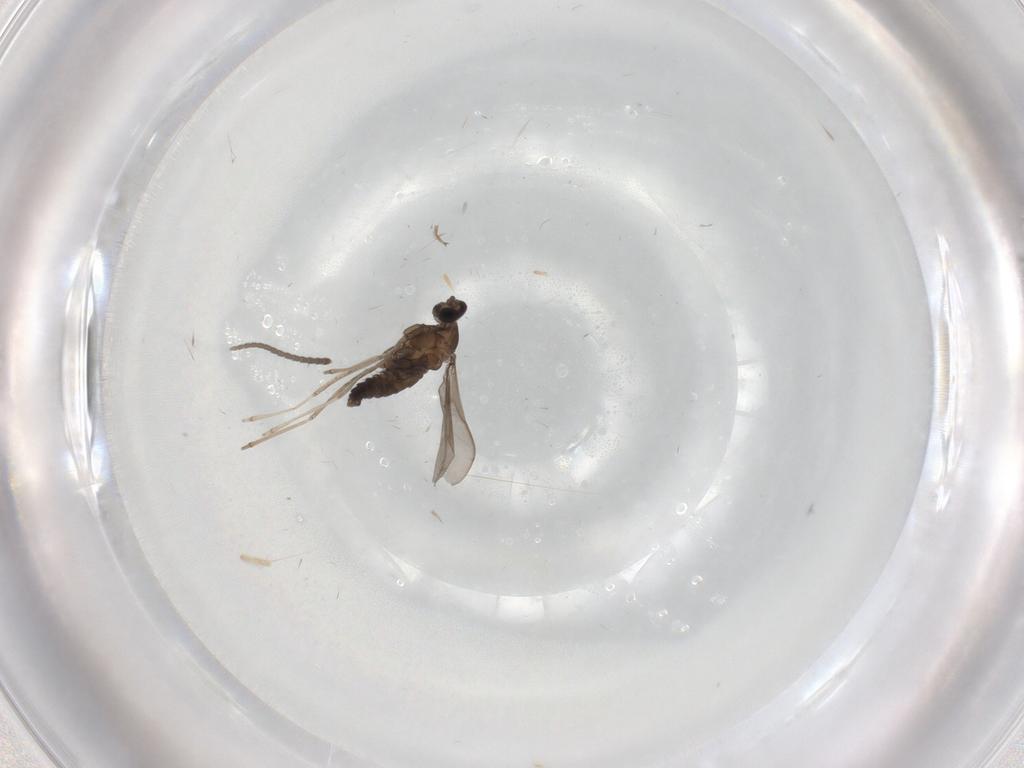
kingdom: Animalia
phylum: Arthropoda
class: Insecta
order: Diptera
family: Sciaridae
